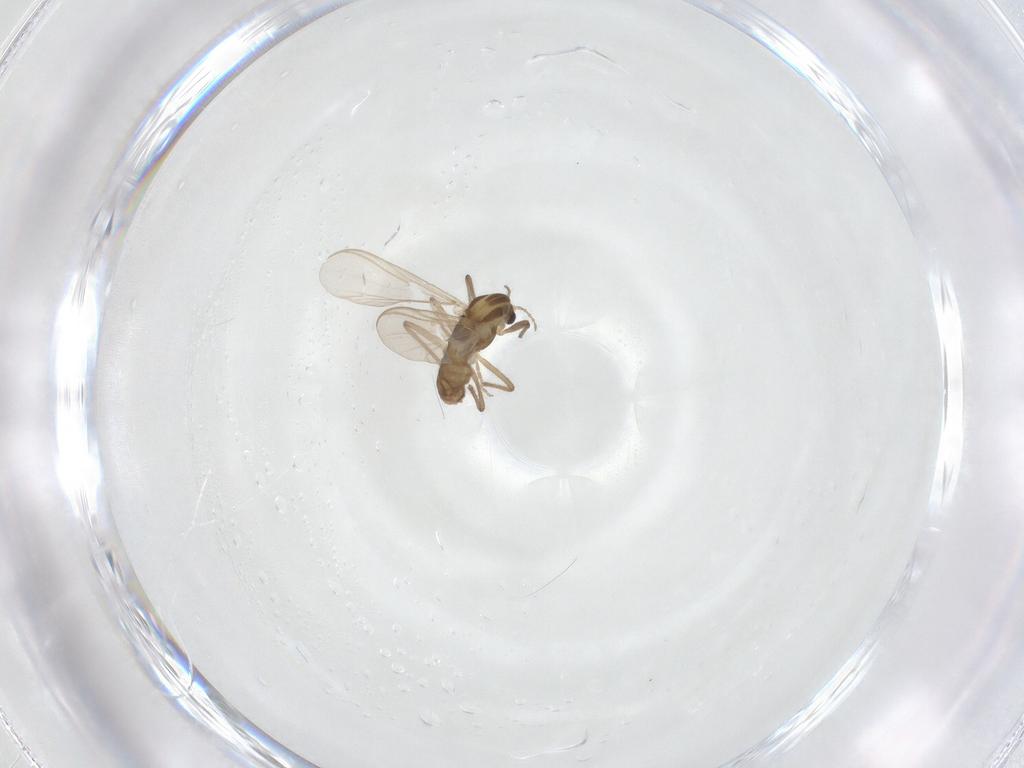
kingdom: Animalia
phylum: Arthropoda
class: Insecta
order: Diptera
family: Chironomidae
